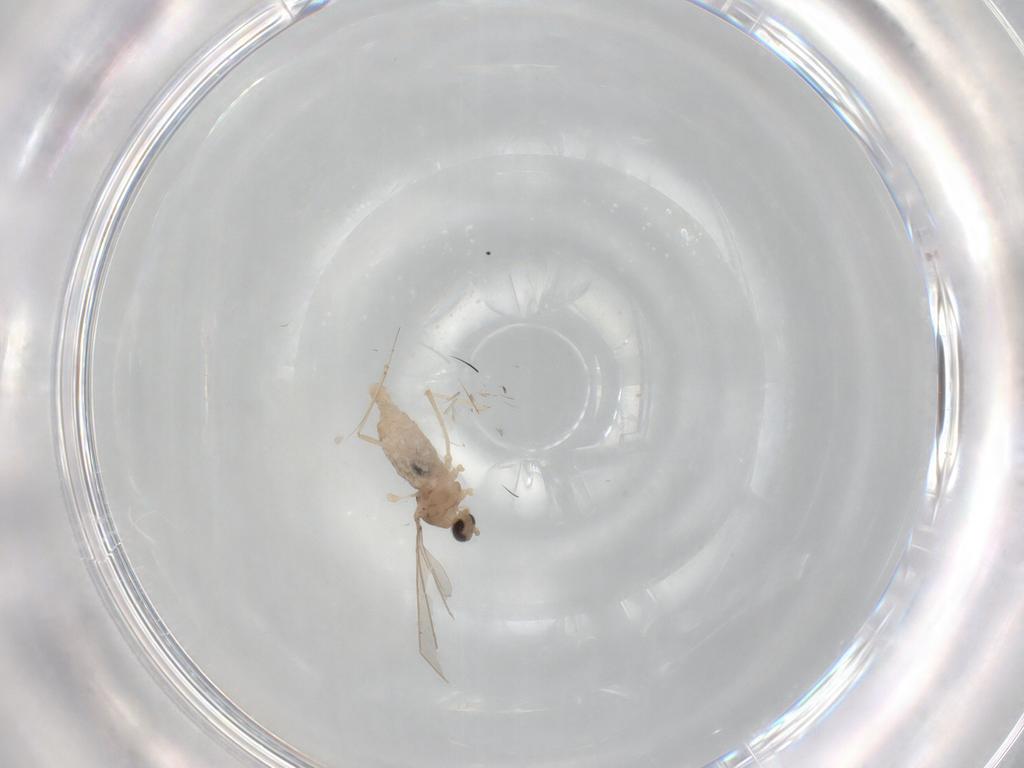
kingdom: Animalia
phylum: Arthropoda
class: Insecta
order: Diptera
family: Cecidomyiidae
